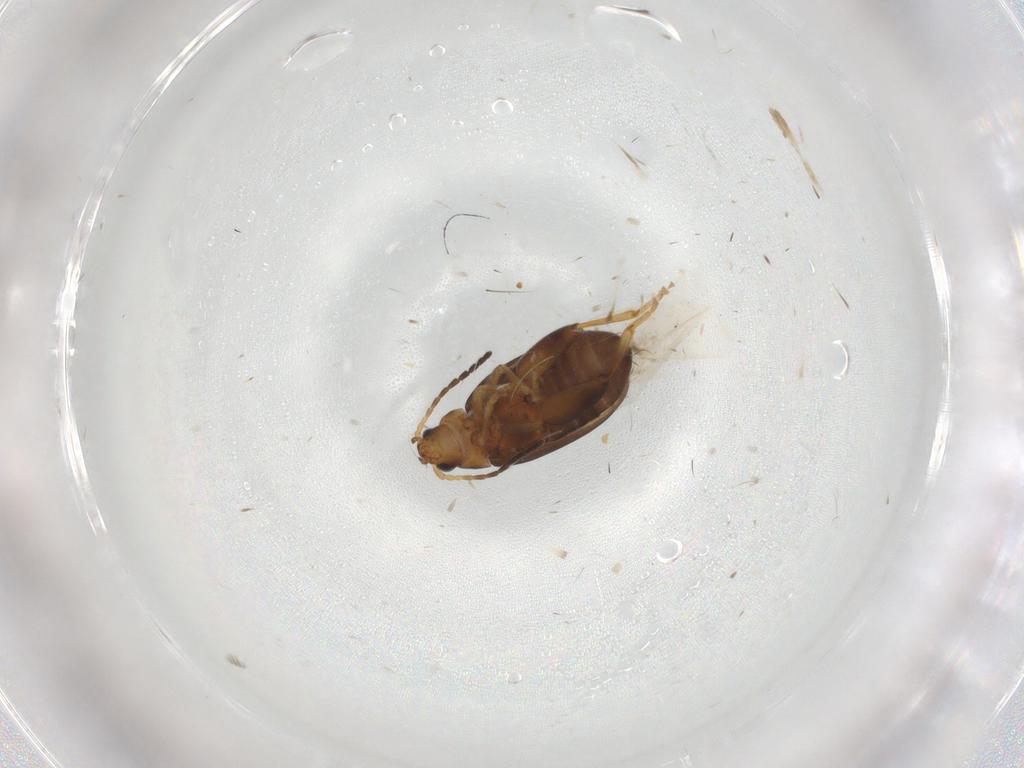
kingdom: Animalia
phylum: Arthropoda
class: Insecta
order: Coleoptera
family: Chrysomelidae
